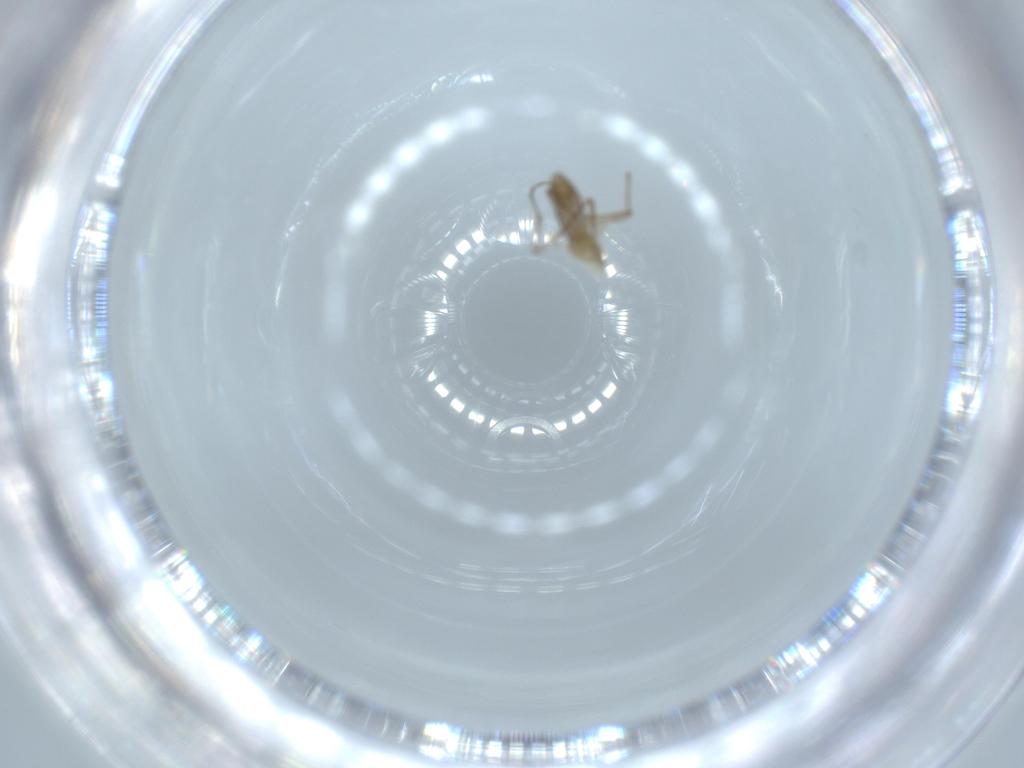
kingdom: Animalia
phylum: Arthropoda
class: Insecta
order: Diptera
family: Chironomidae
